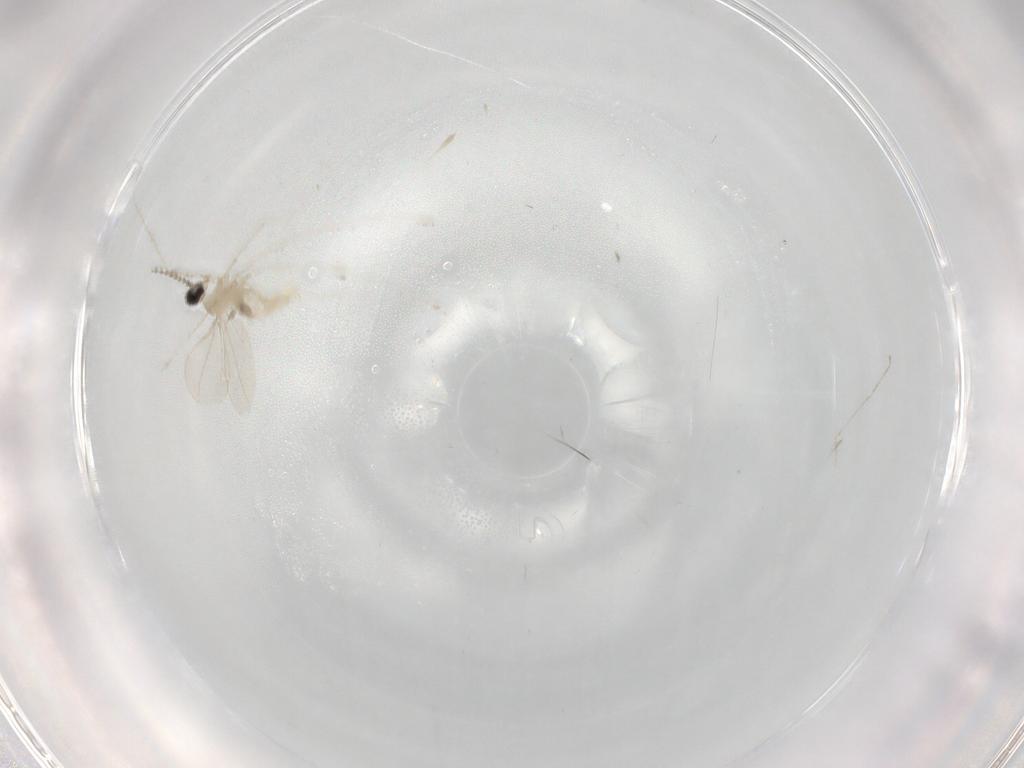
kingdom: Animalia
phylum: Arthropoda
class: Insecta
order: Diptera
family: Cecidomyiidae
